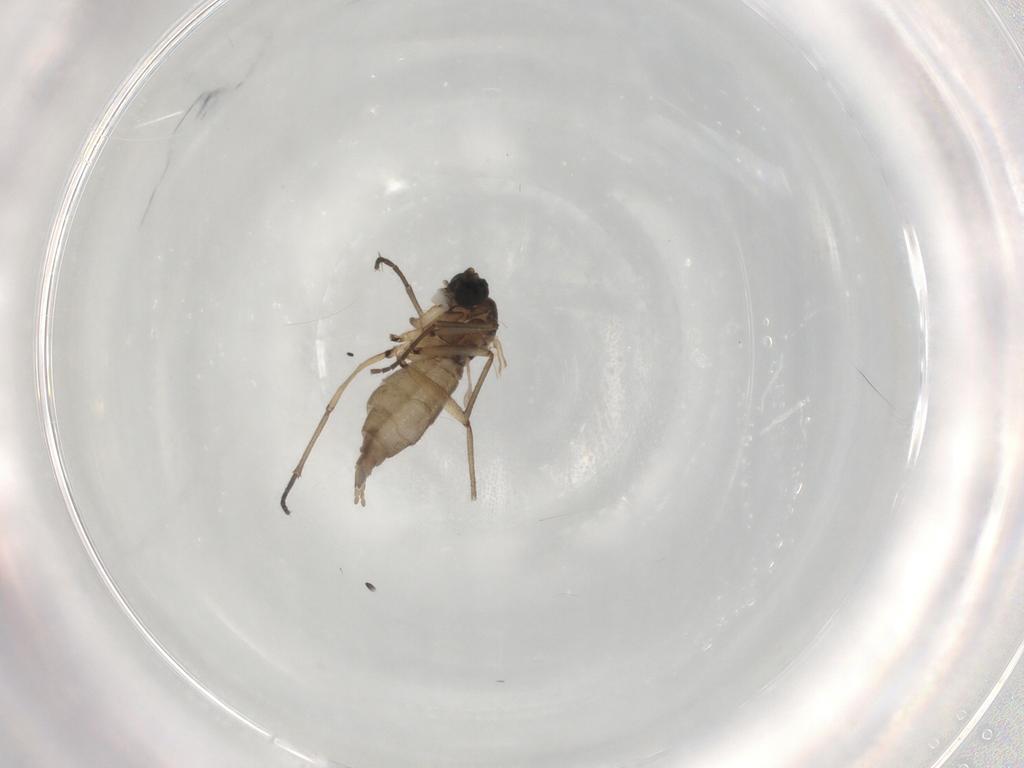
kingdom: Animalia
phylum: Arthropoda
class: Insecta
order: Diptera
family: Sciaridae
